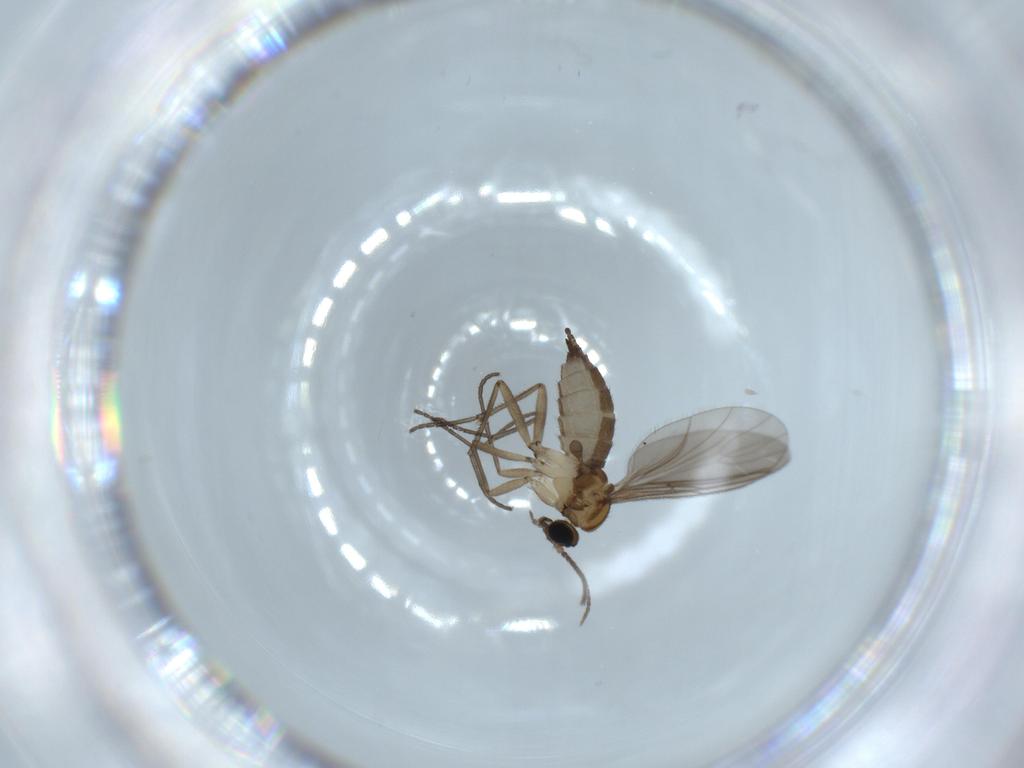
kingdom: Animalia
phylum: Arthropoda
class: Insecta
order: Diptera
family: Sciaridae
